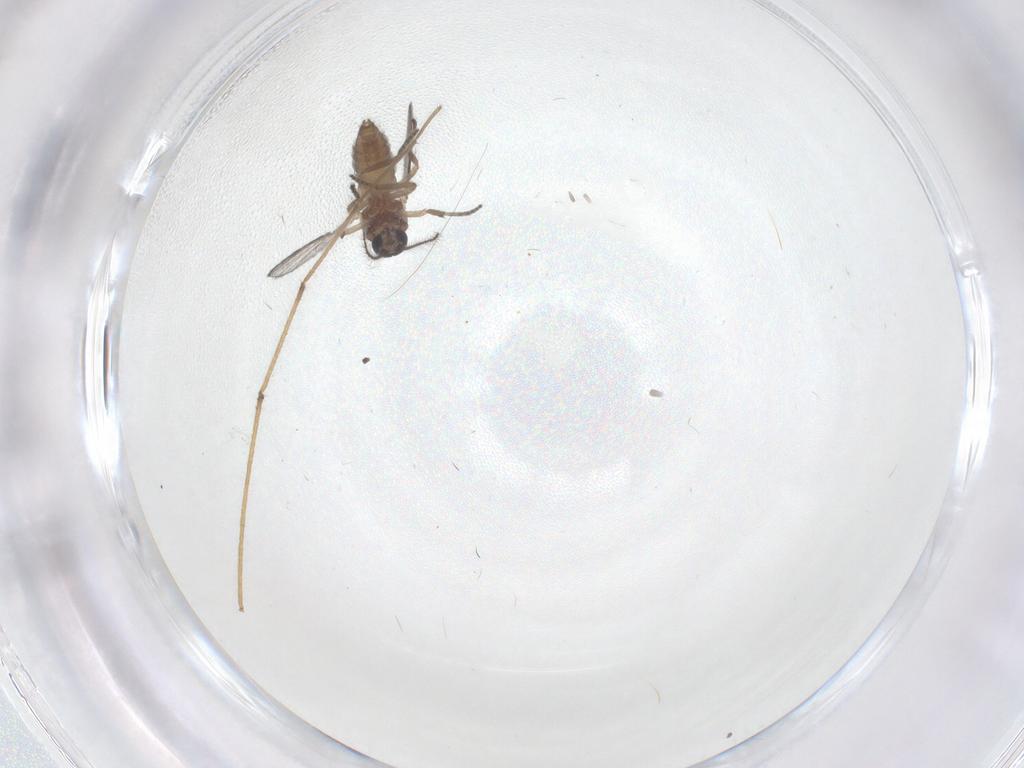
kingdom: Animalia
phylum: Arthropoda
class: Insecta
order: Diptera
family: Cecidomyiidae
